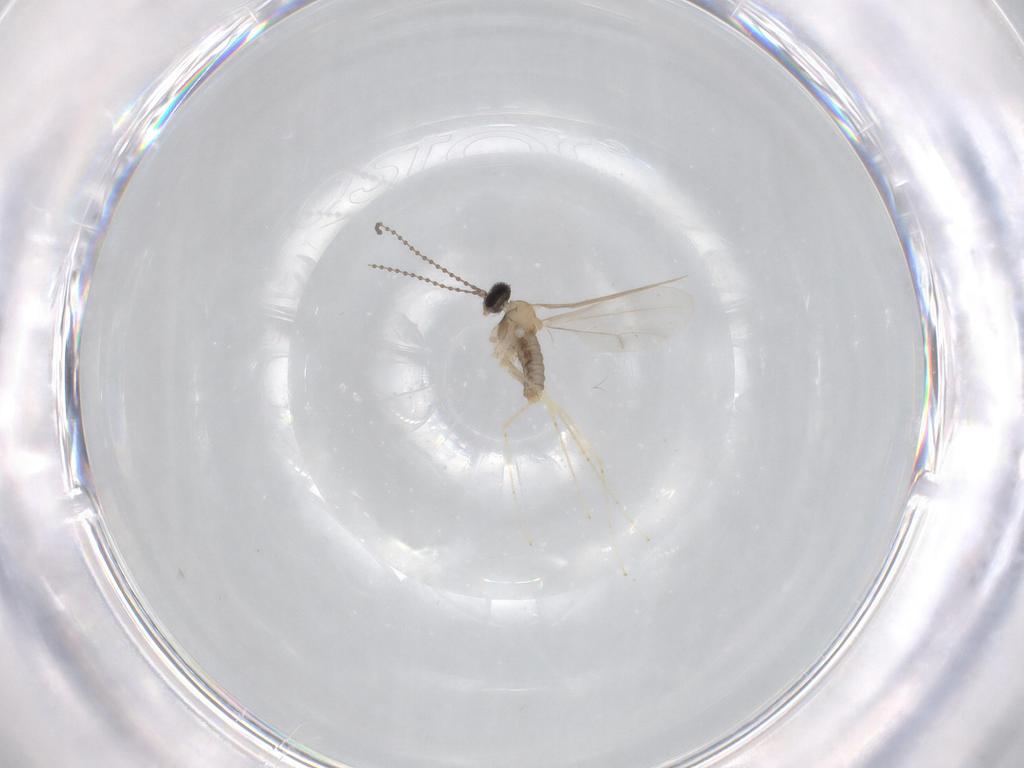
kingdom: Animalia
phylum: Arthropoda
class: Insecta
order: Diptera
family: Cecidomyiidae
